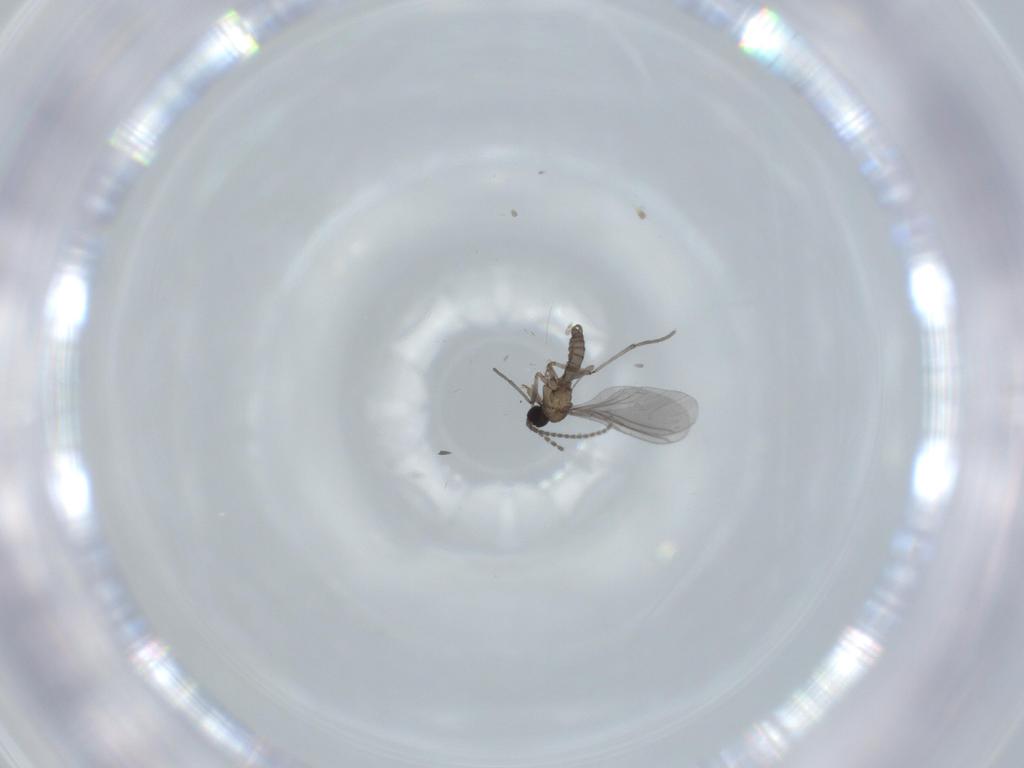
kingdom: Animalia
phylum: Arthropoda
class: Insecta
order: Diptera
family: Sciaridae
